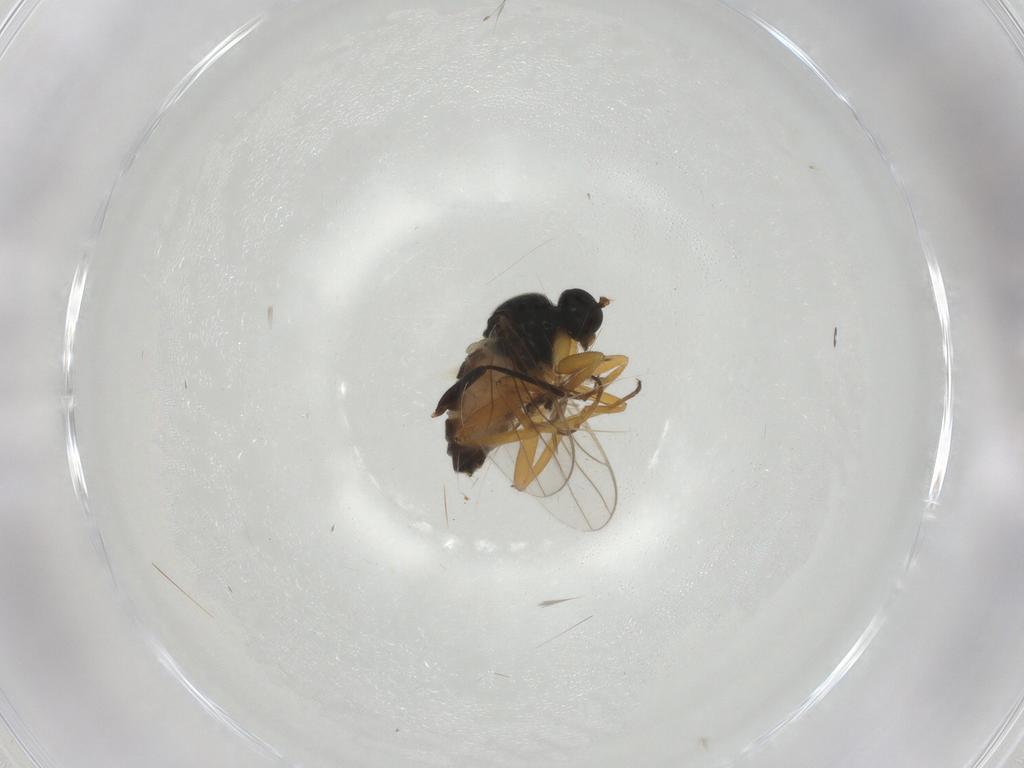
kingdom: Animalia
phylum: Arthropoda
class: Insecta
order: Diptera
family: Hybotidae
